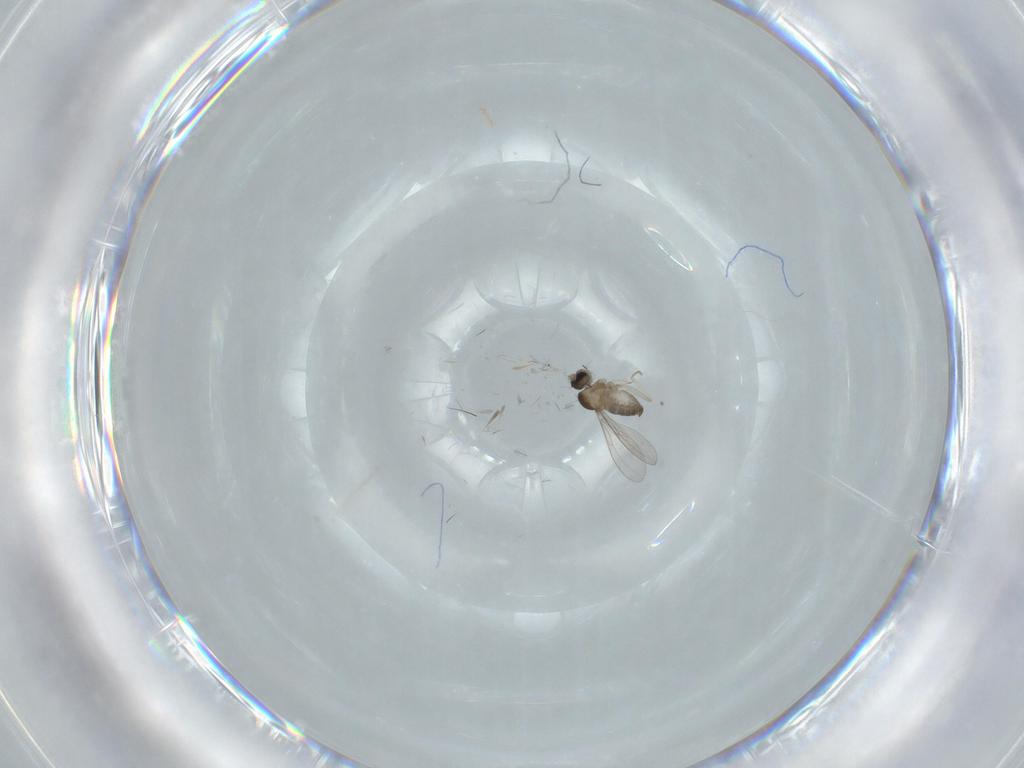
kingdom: Animalia
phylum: Arthropoda
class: Insecta
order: Diptera
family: Cecidomyiidae
